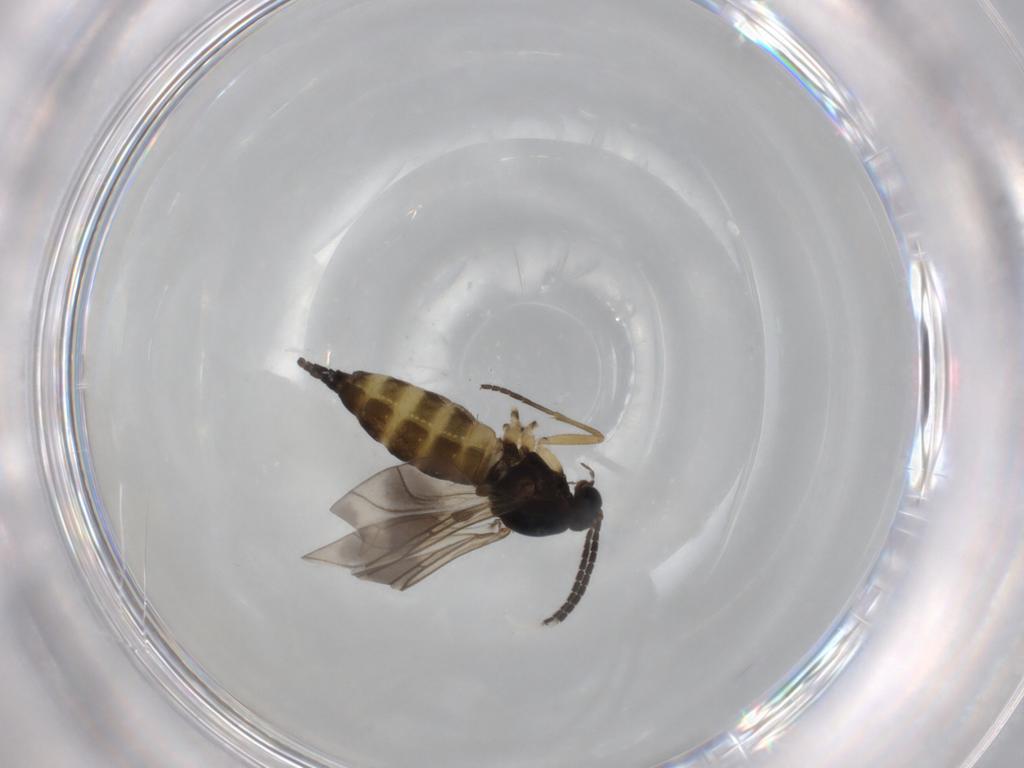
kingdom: Animalia
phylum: Arthropoda
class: Insecta
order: Diptera
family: Sciaridae
